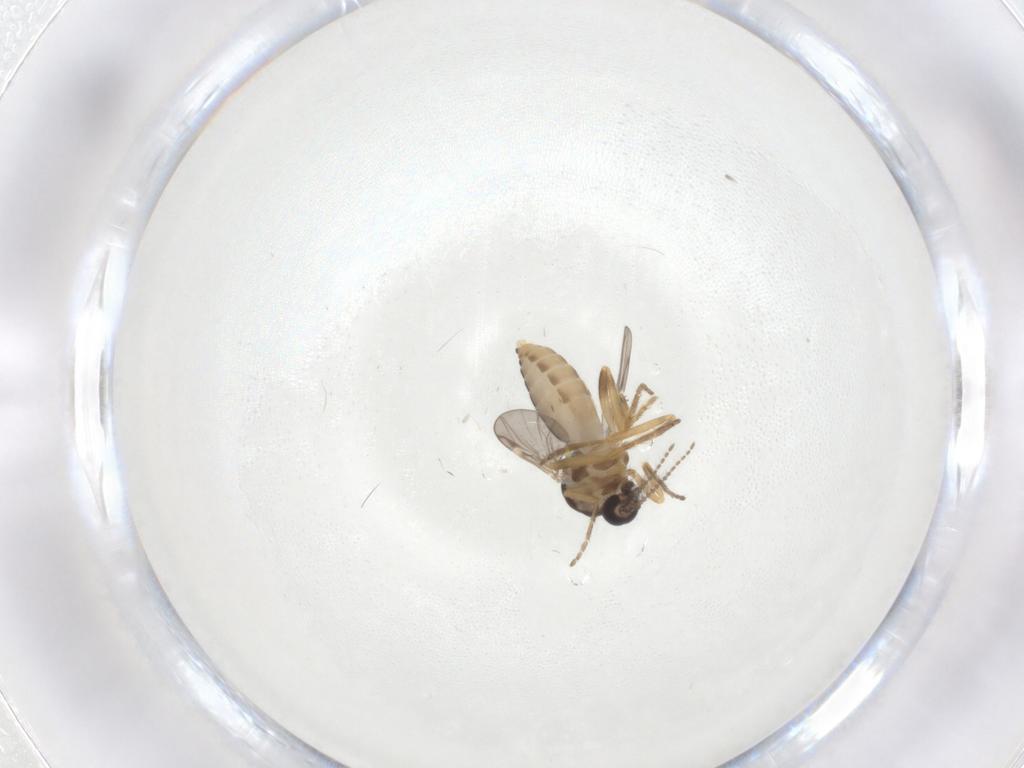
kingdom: Animalia
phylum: Arthropoda
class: Insecta
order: Diptera
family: Ceratopogonidae
